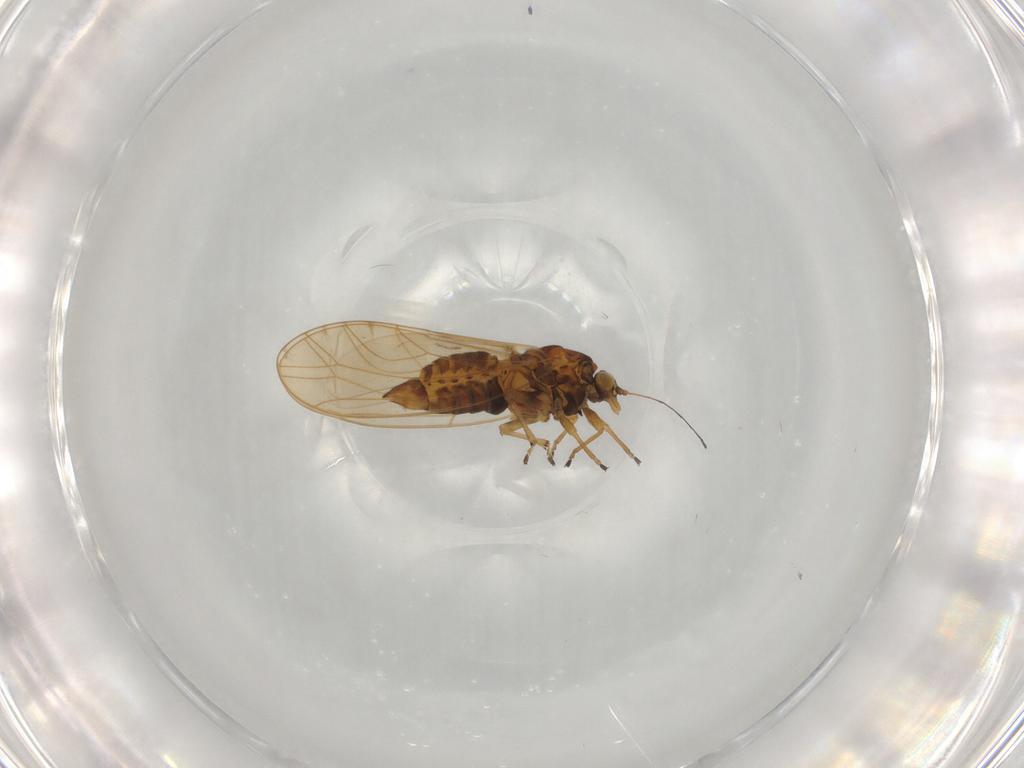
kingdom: Animalia
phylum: Arthropoda
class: Insecta
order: Hemiptera
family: Triozidae
